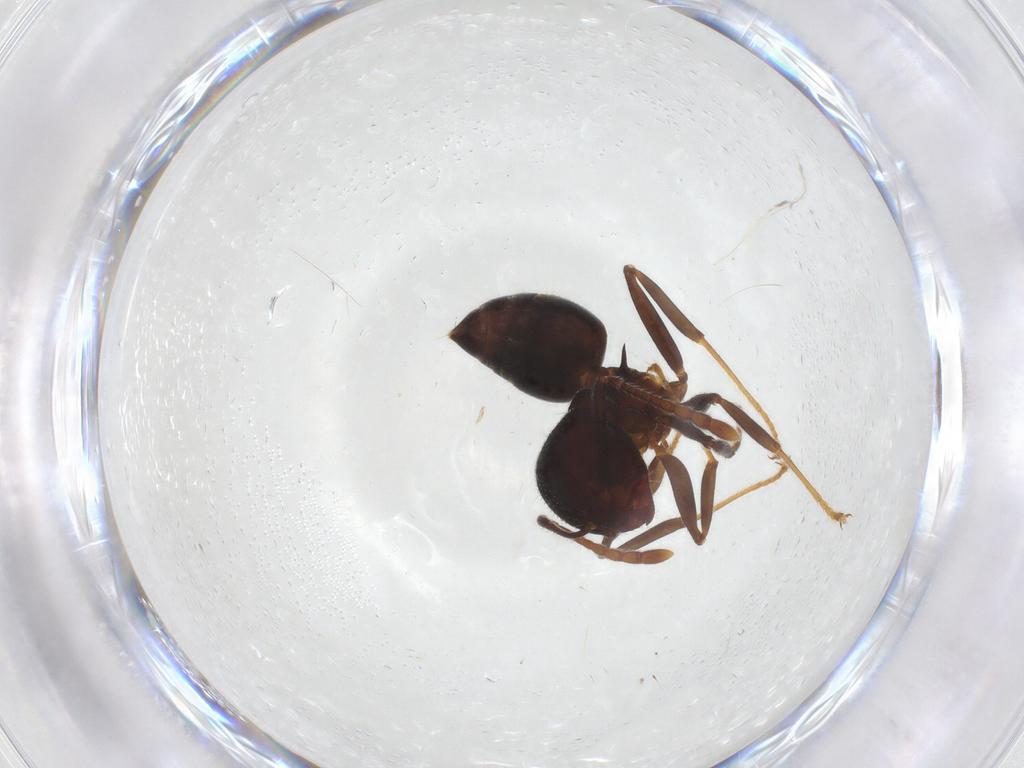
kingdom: Animalia
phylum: Arthropoda
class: Insecta
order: Hymenoptera
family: Formicidae
